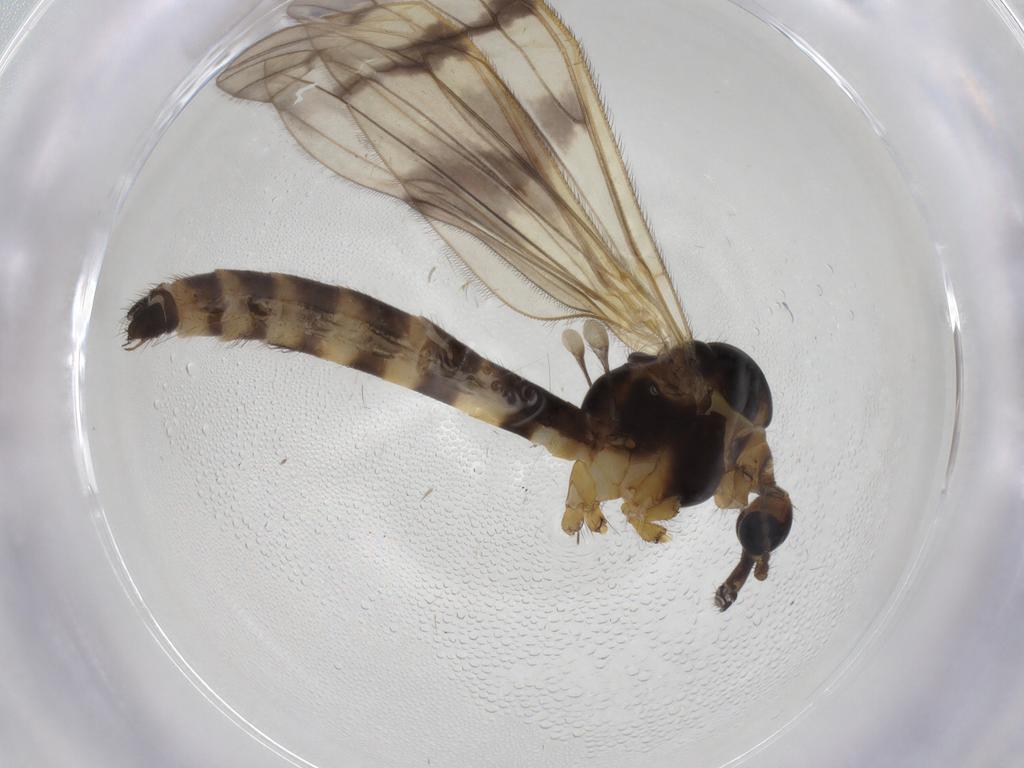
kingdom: Animalia
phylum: Arthropoda
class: Insecta
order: Diptera
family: Limoniidae
